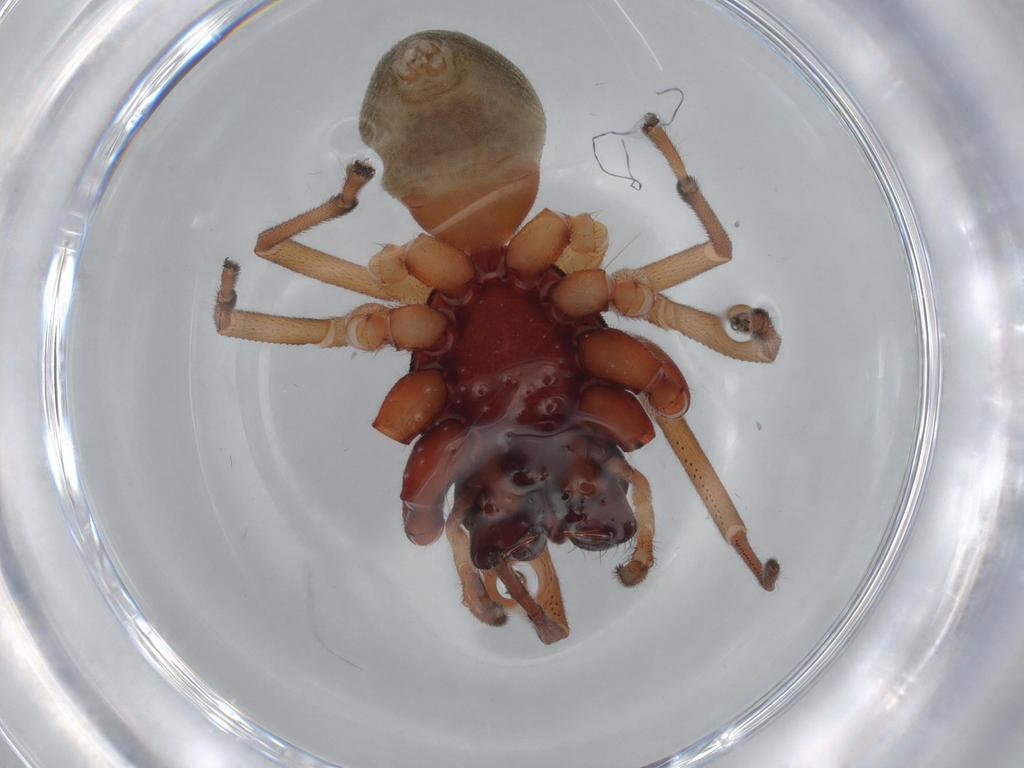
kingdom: Animalia
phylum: Arthropoda
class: Arachnida
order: Araneae
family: Trachelidae
